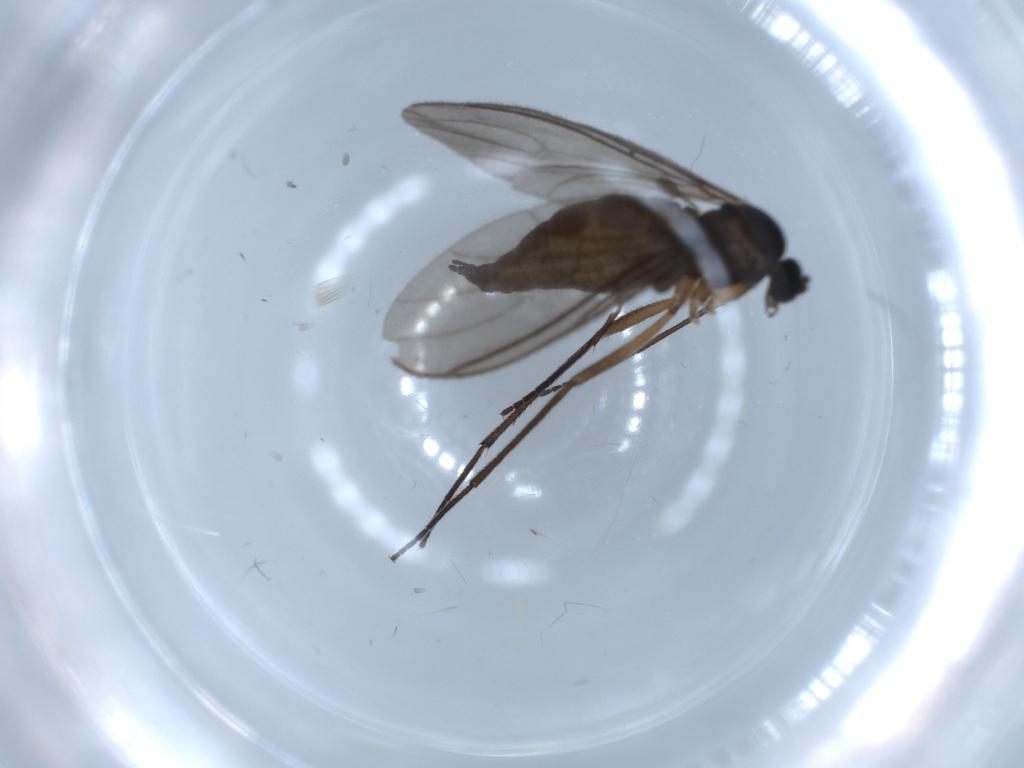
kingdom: Animalia
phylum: Arthropoda
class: Insecta
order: Diptera
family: Sciaridae
